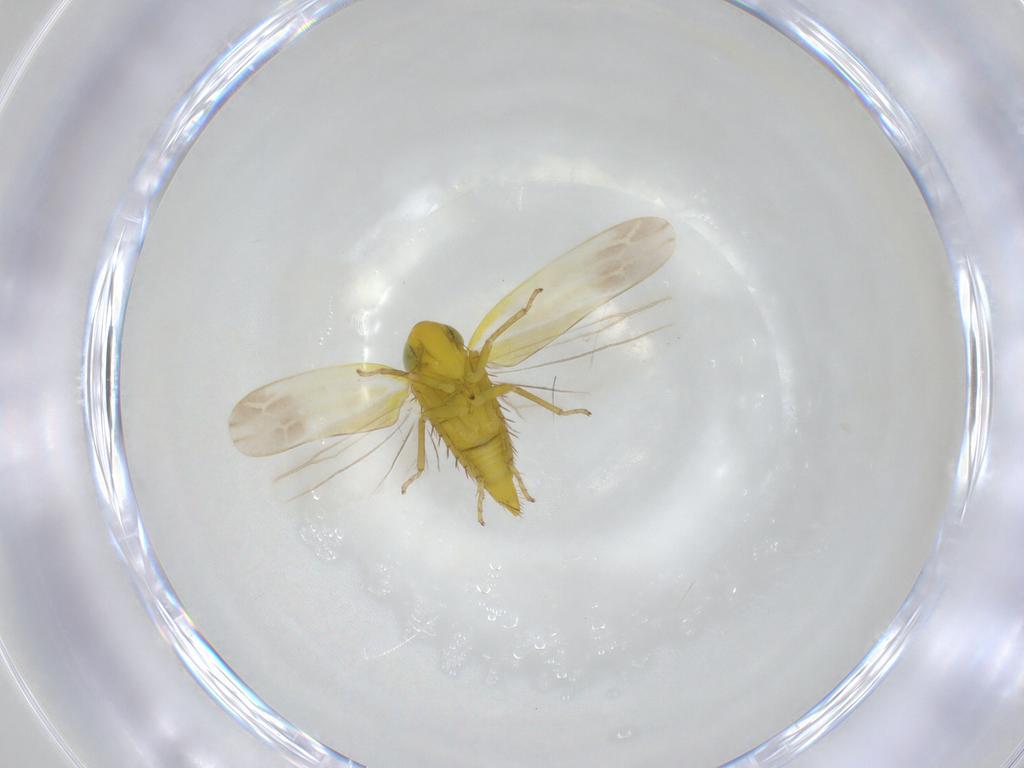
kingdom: Animalia
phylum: Arthropoda
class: Insecta
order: Hemiptera
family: Cicadellidae
